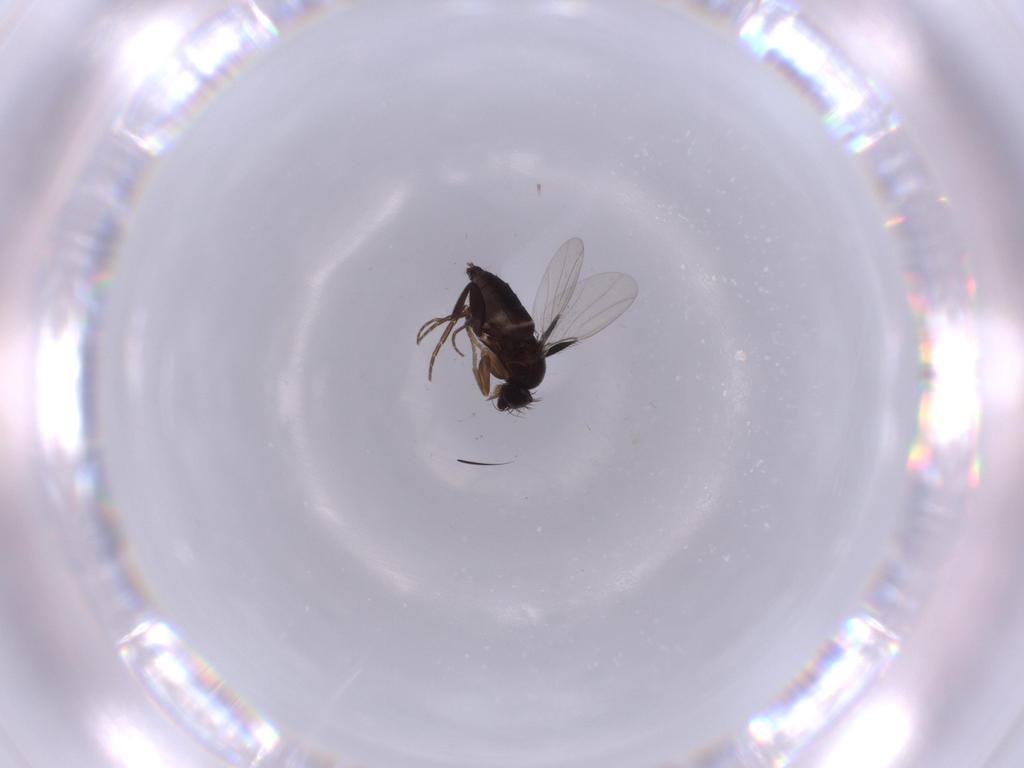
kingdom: Animalia
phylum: Arthropoda
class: Insecta
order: Diptera
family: Phoridae
